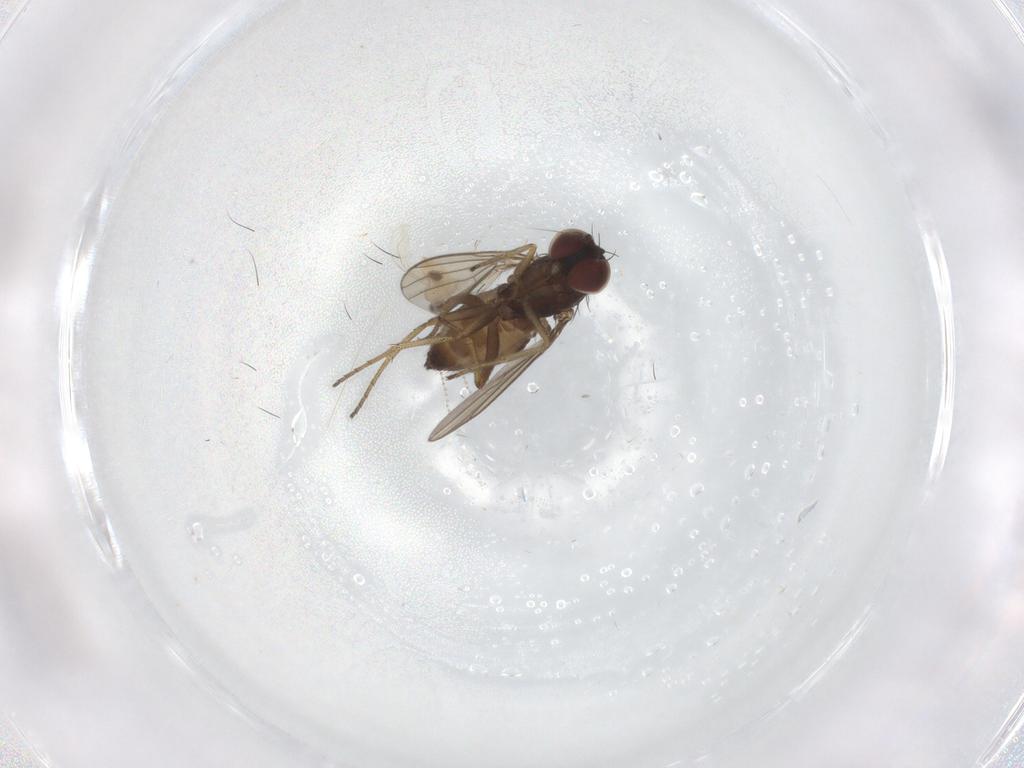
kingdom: Animalia
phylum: Arthropoda
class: Insecta
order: Diptera
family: Dolichopodidae
